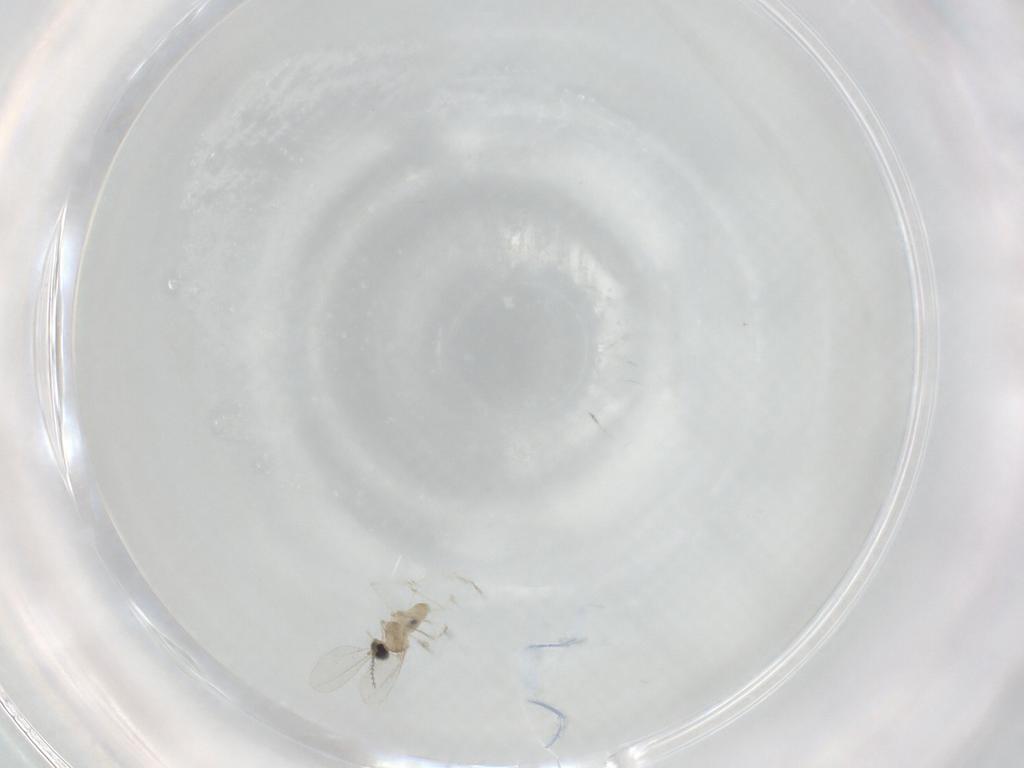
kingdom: Animalia
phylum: Arthropoda
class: Insecta
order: Diptera
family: Cecidomyiidae
